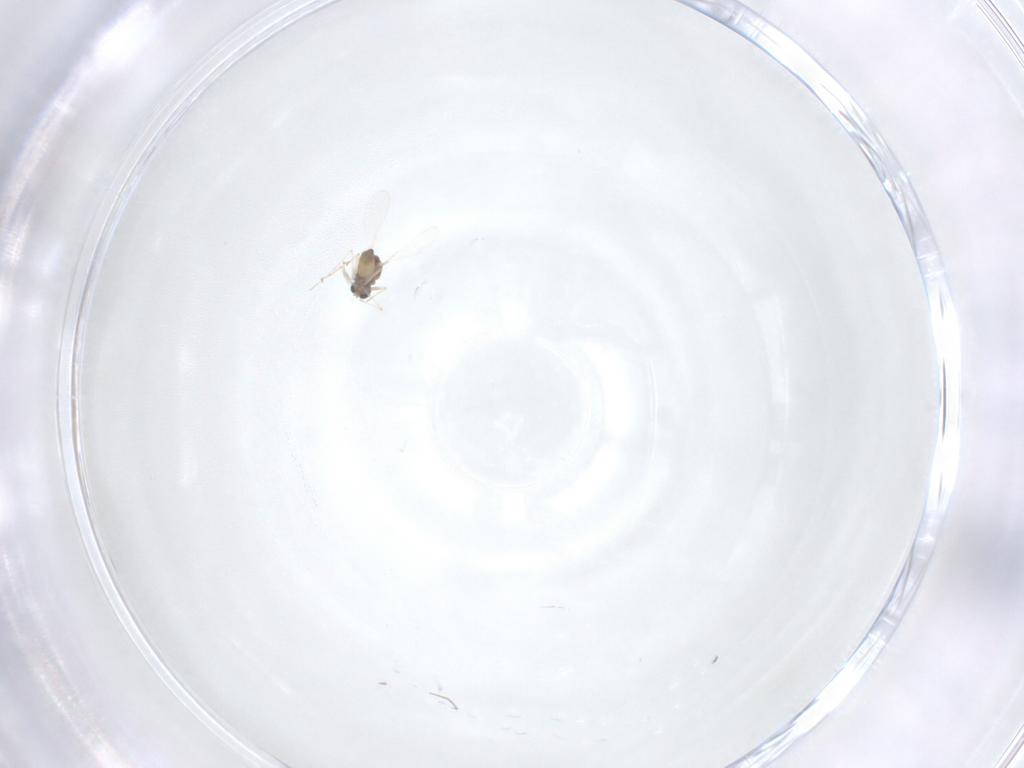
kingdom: Animalia
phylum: Arthropoda
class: Insecta
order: Diptera
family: Chironomidae
